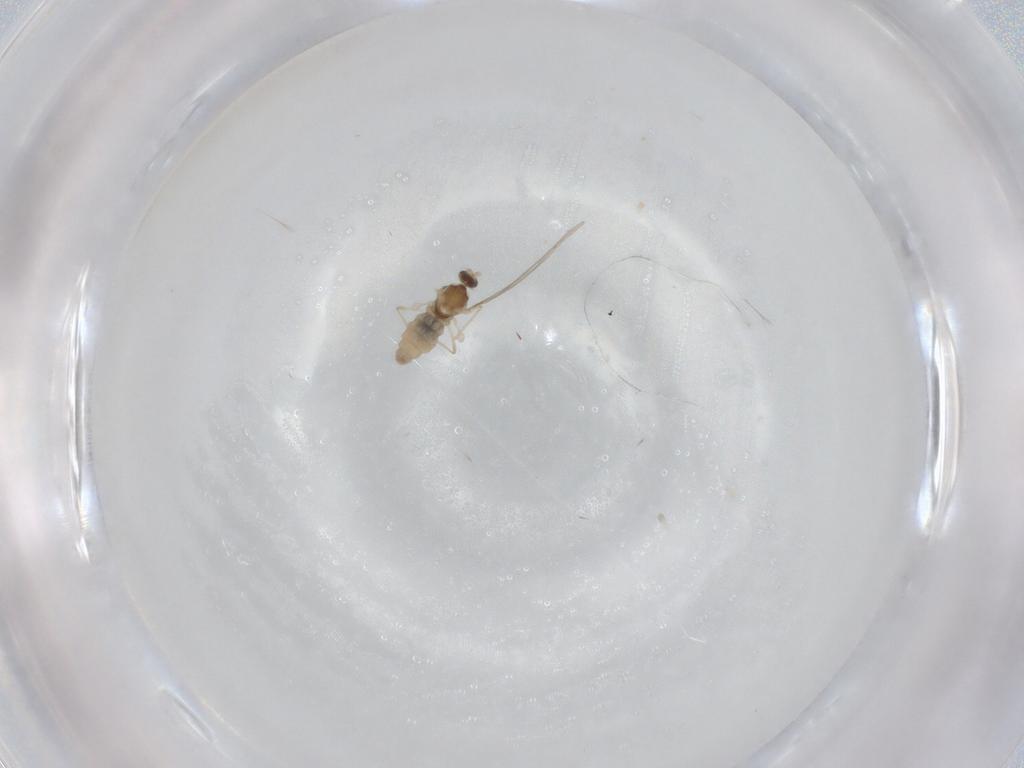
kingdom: Animalia
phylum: Arthropoda
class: Insecta
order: Diptera
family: Cecidomyiidae
